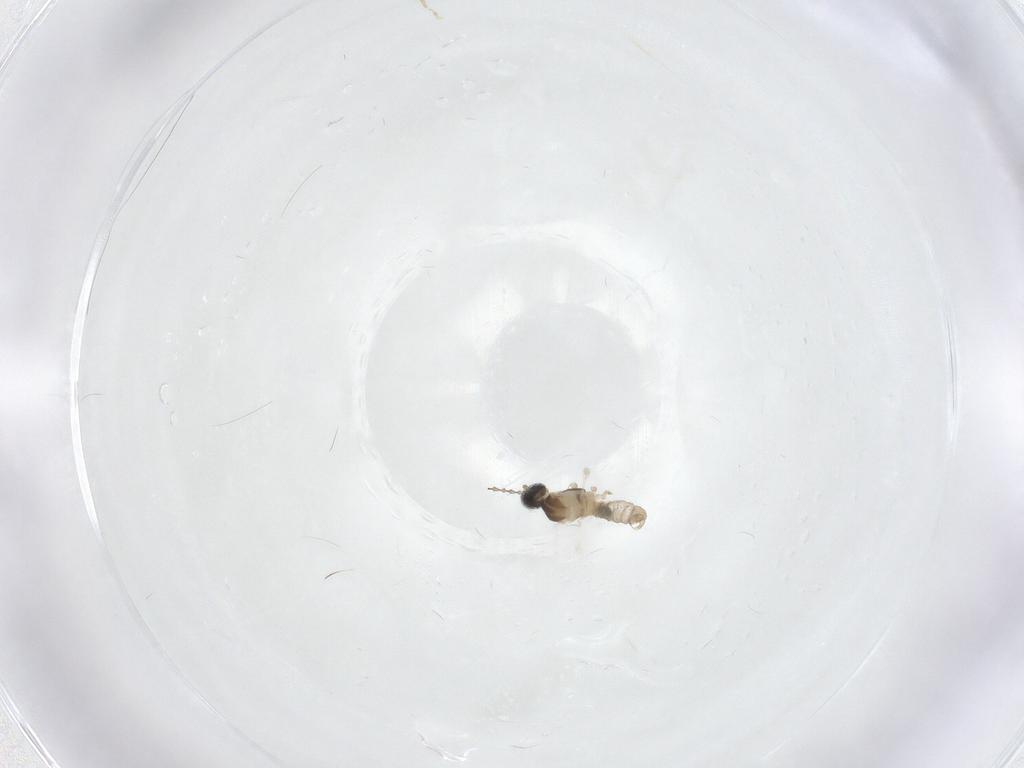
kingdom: Animalia
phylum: Arthropoda
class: Insecta
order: Diptera
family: Cecidomyiidae
